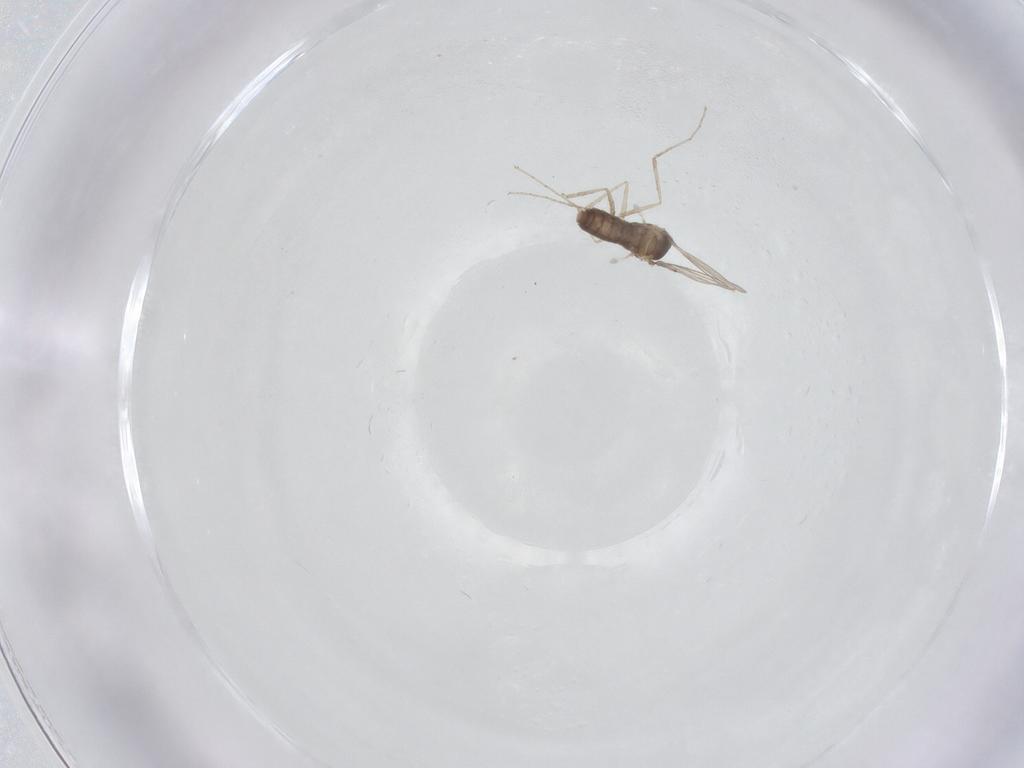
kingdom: Animalia
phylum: Arthropoda
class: Insecta
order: Diptera
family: Cecidomyiidae
